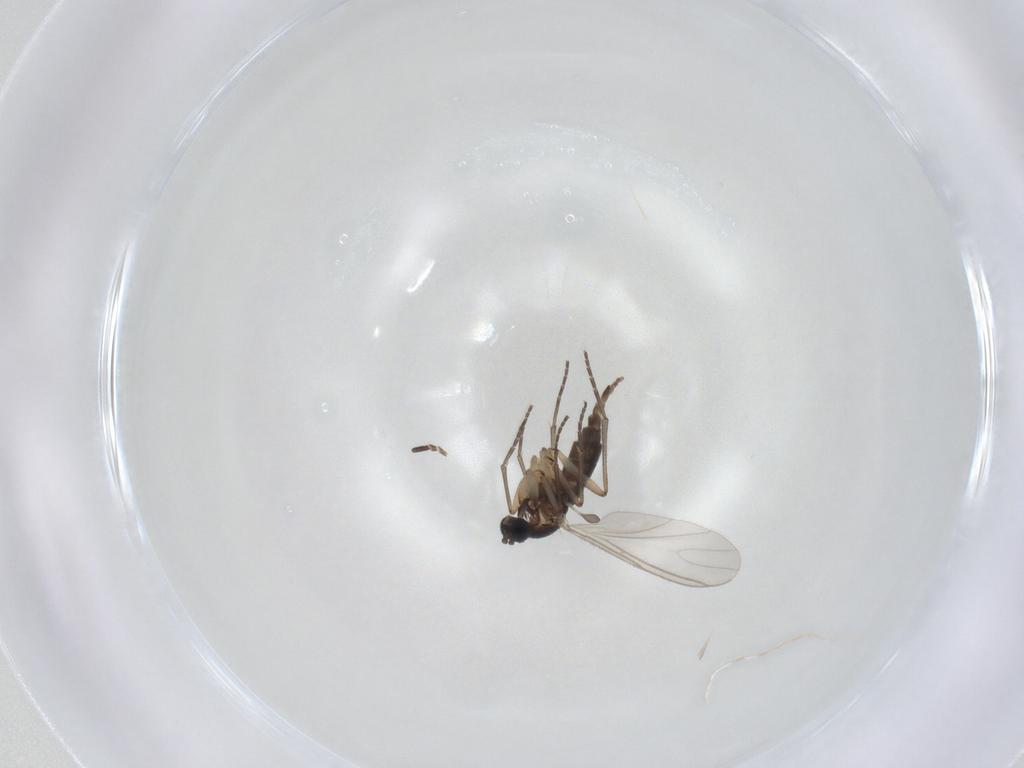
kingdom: Animalia
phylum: Arthropoda
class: Insecta
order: Diptera
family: Sciaridae
